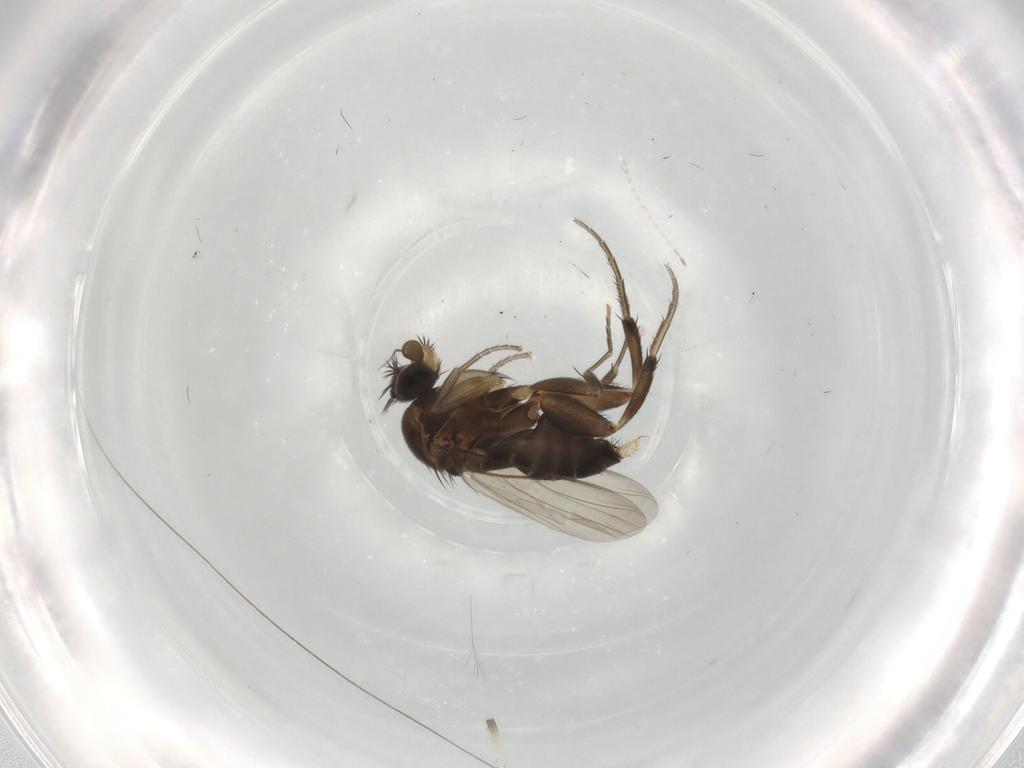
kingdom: Animalia
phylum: Arthropoda
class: Insecta
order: Diptera
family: Phoridae
